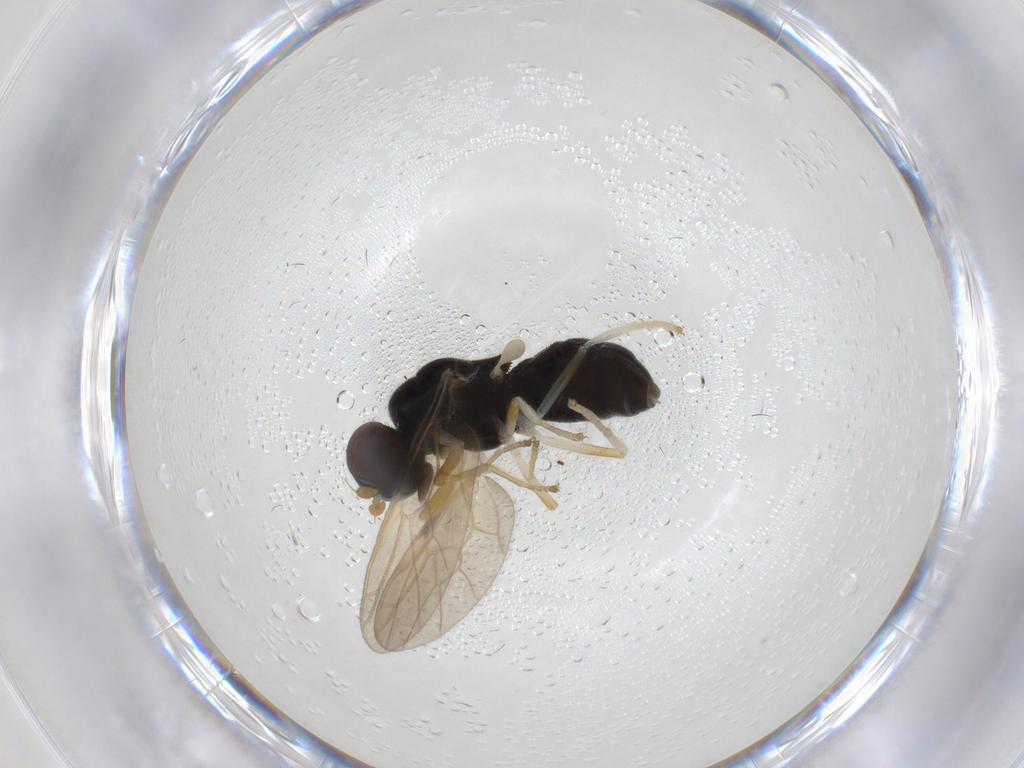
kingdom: Animalia
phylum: Arthropoda
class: Insecta
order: Diptera
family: Stratiomyidae
